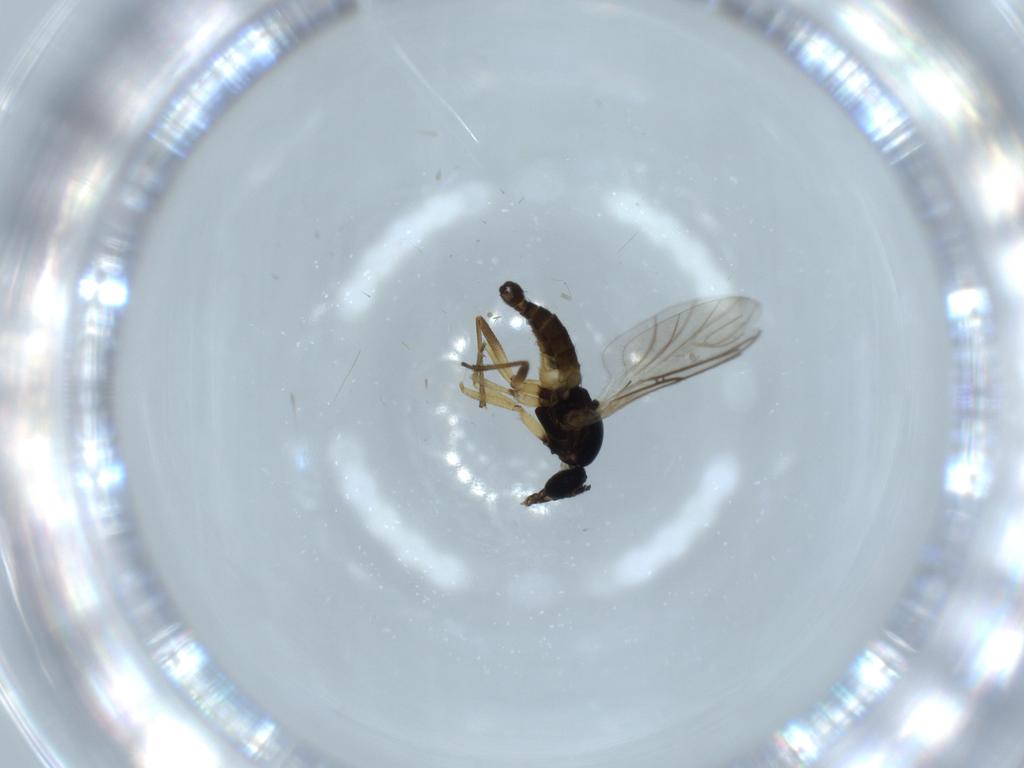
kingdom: Animalia
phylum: Arthropoda
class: Insecta
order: Diptera
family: Sciaridae
